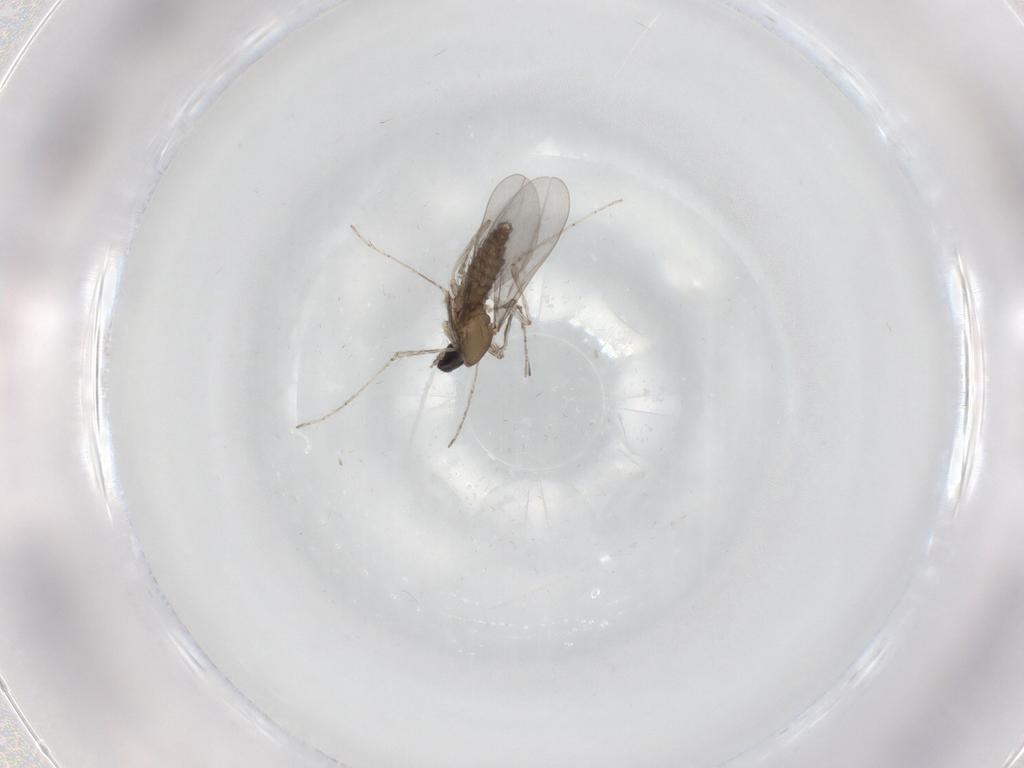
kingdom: Animalia
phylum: Arthropoda
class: Insecta
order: Diptera
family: Cecidomyiidae
